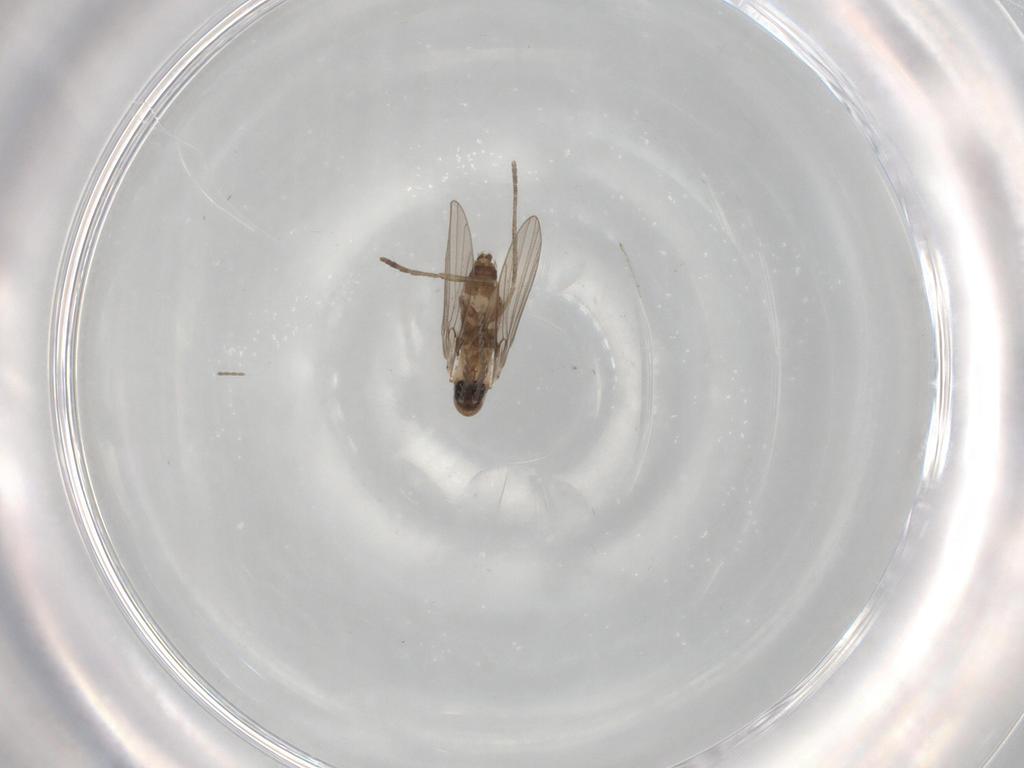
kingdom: Animalia
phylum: Arthropoda
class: Insecta
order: Diptera
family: Psychodidae
